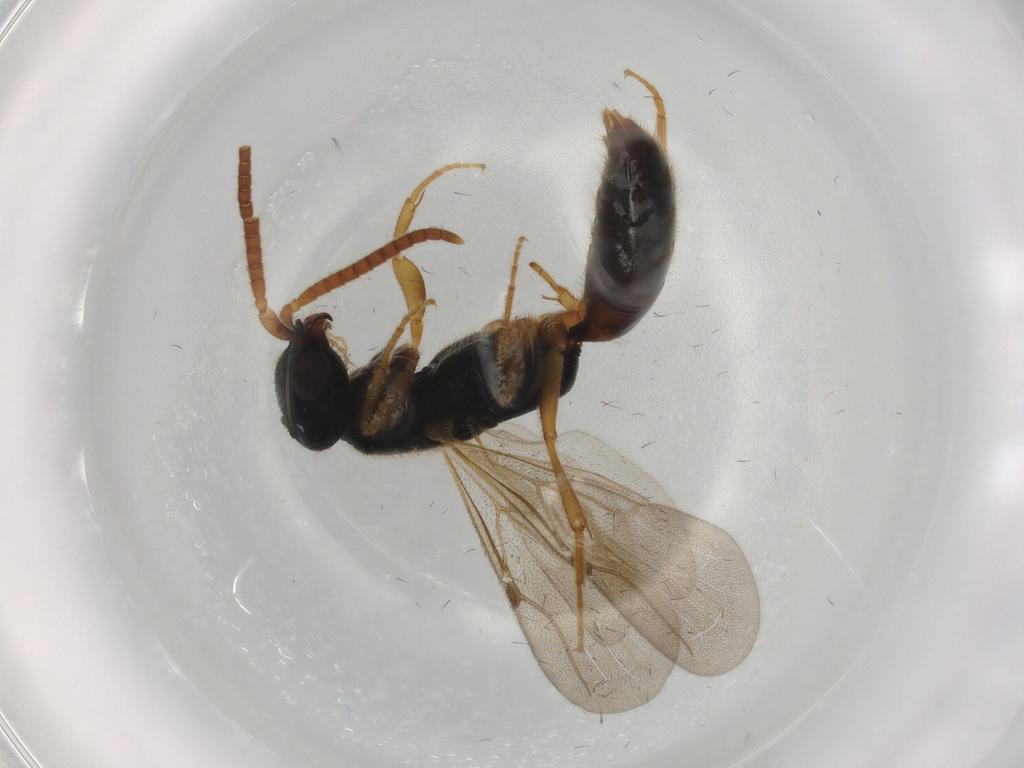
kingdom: Animalia
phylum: Arthropoda
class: Insecta
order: Hymenoptera
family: Bethylidae
